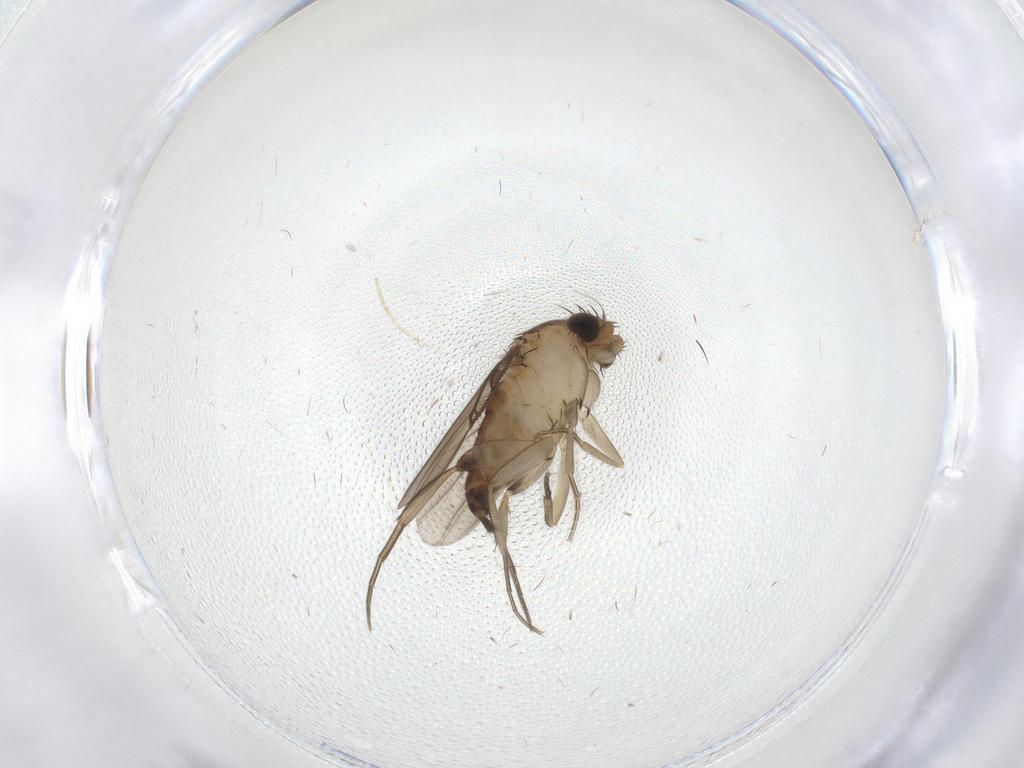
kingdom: Animalia
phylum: Arthropoda
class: Insecta
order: Diptera
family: Phoridae
